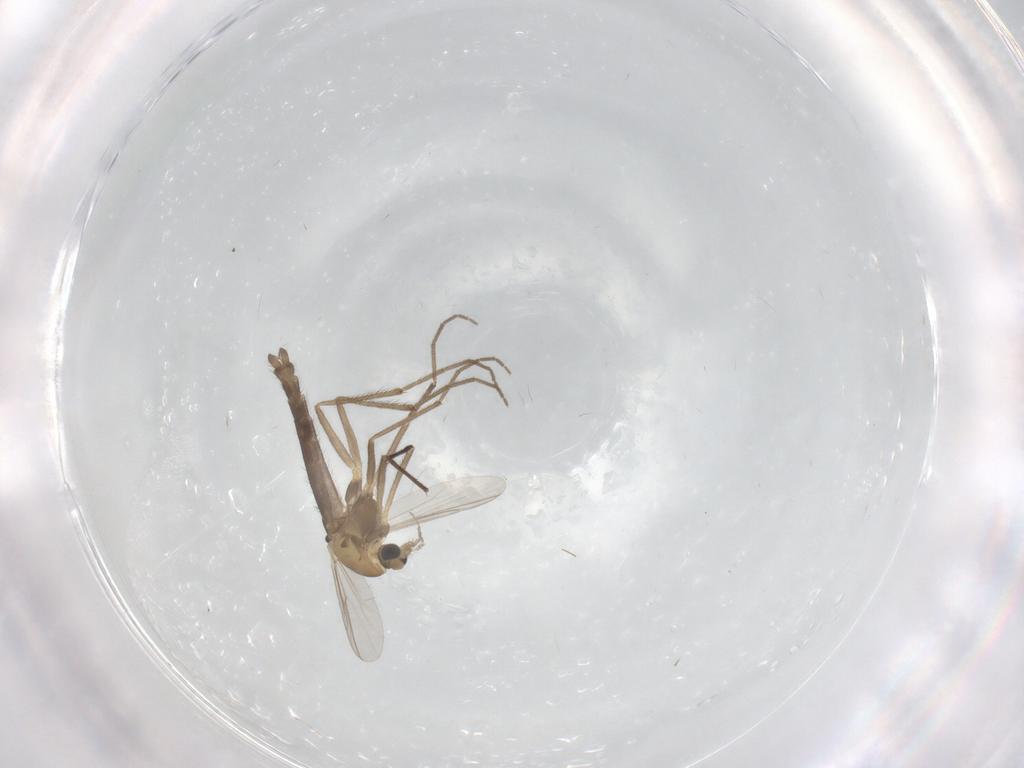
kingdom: Animalia
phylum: Arthropoda
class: Insecta
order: Diptera
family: Chironomidae
